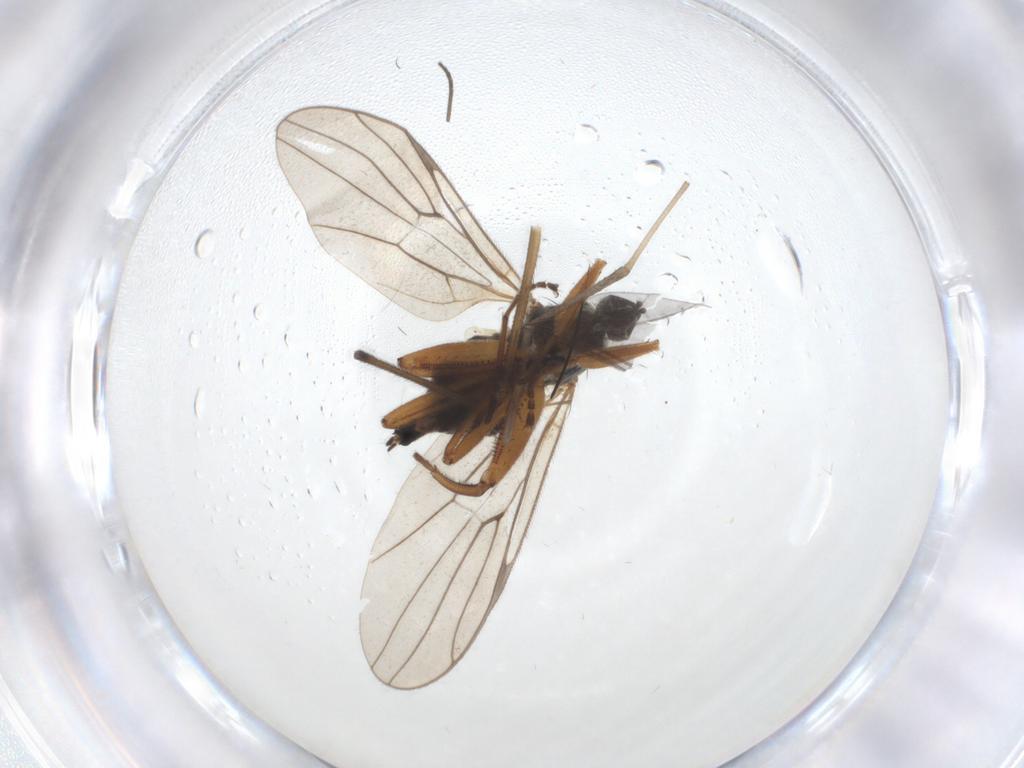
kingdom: Animalia
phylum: Arthropoda
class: Insecta
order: Diptera
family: Hybotidae
